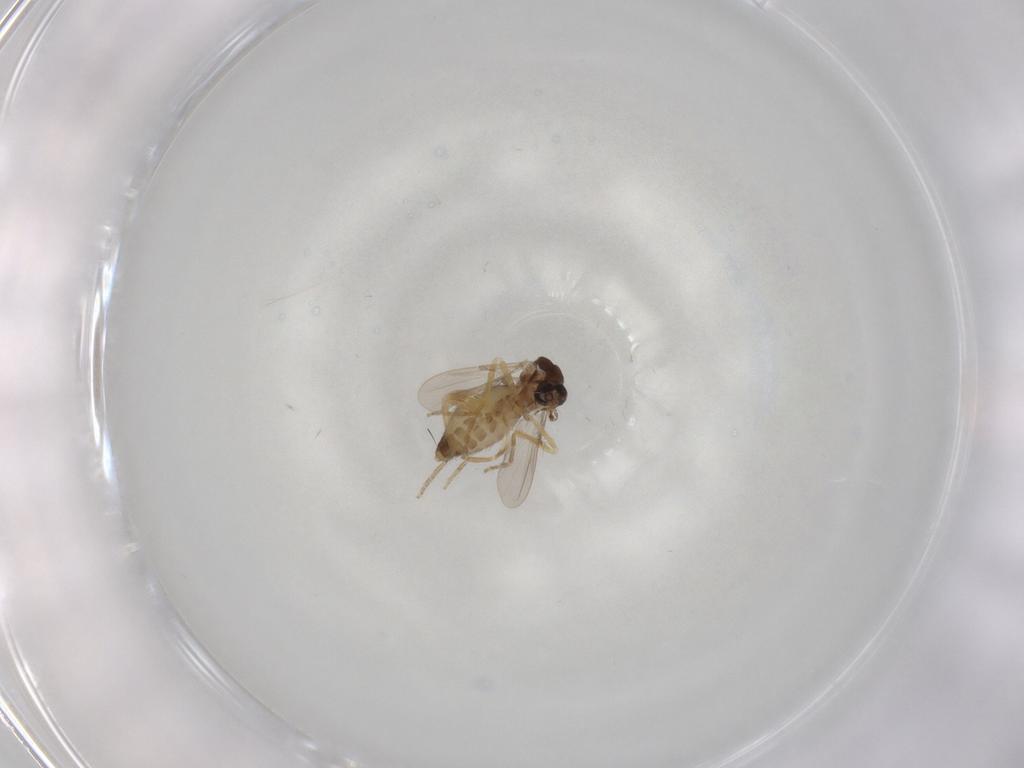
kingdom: Animalia
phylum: Arthropoda
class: Insecta
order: Diptera
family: Ceratopogonidae
